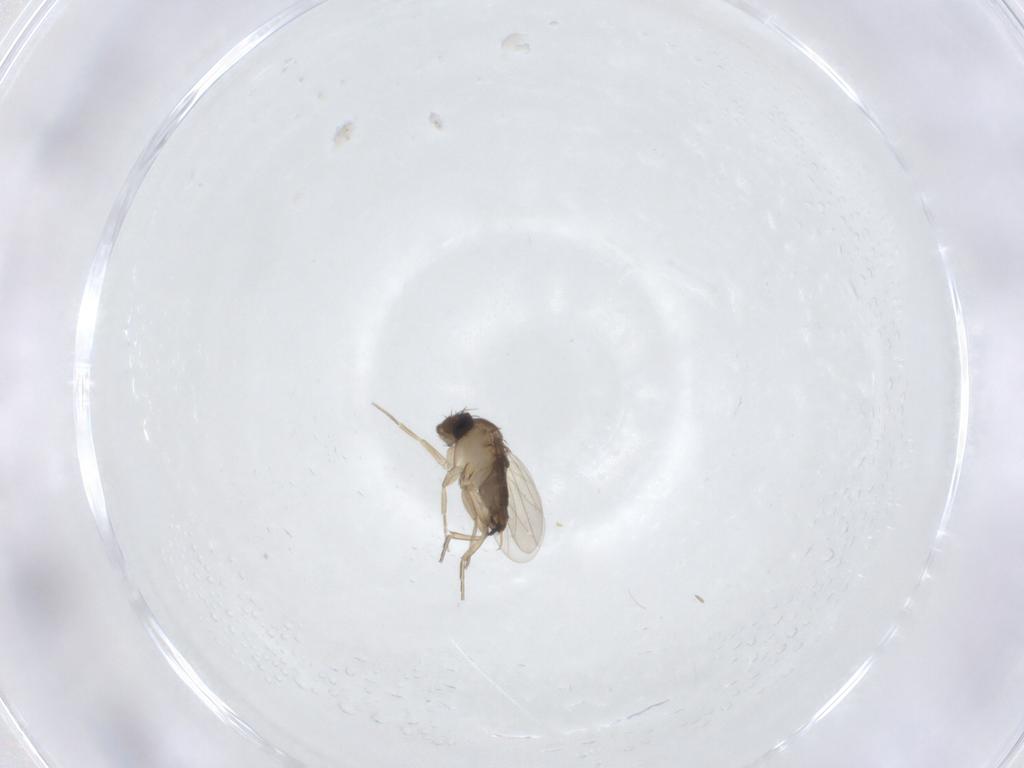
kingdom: Animalia
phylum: Arthropoda
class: Insecta
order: Diptera
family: Phoridae
